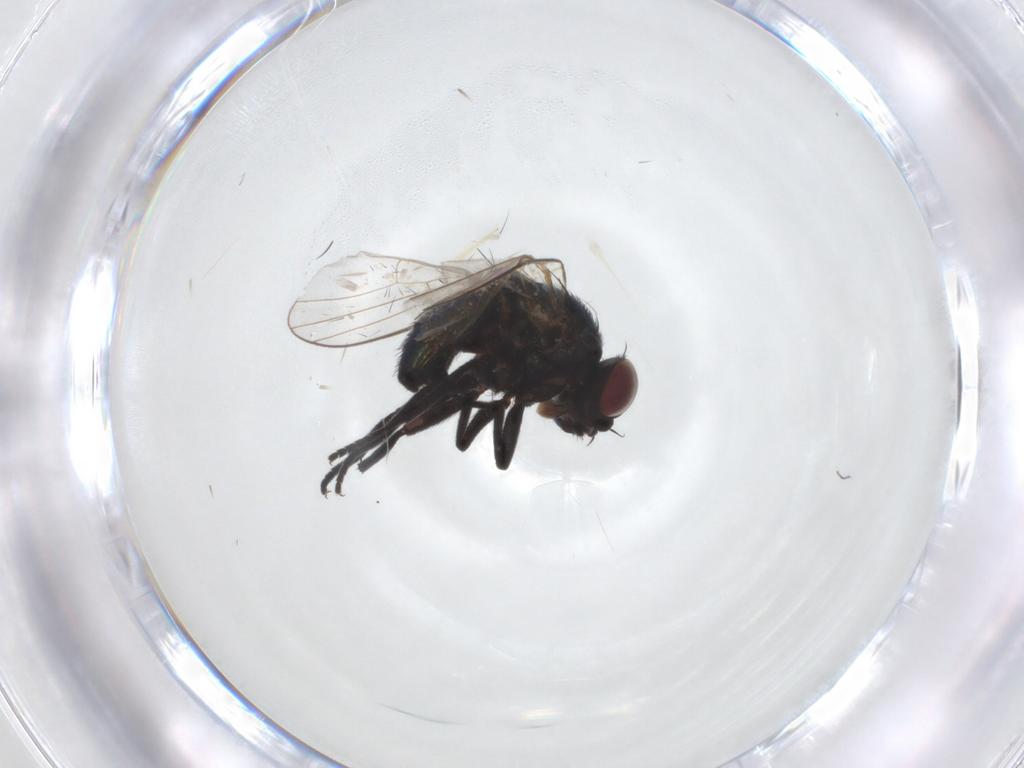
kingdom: Animalia
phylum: Arthropoda
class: Insecta
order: Diptera
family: Agromyzidae
